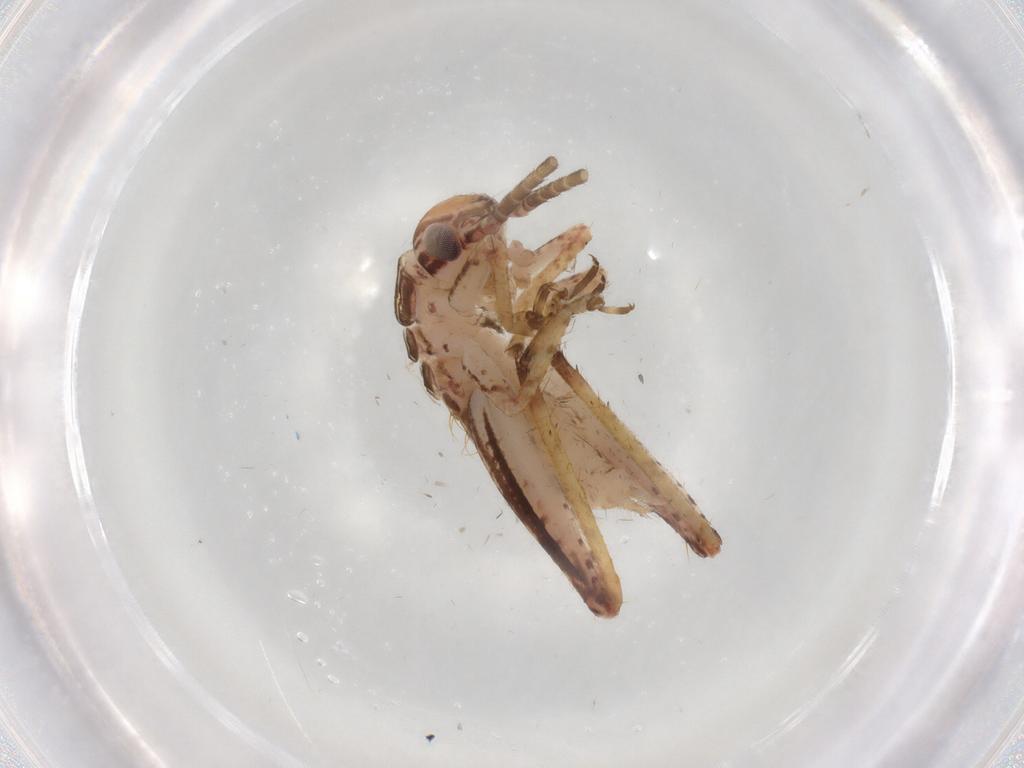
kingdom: Animalia
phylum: Arthropoda
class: Insecta
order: Orthoptera
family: Gryllidae
